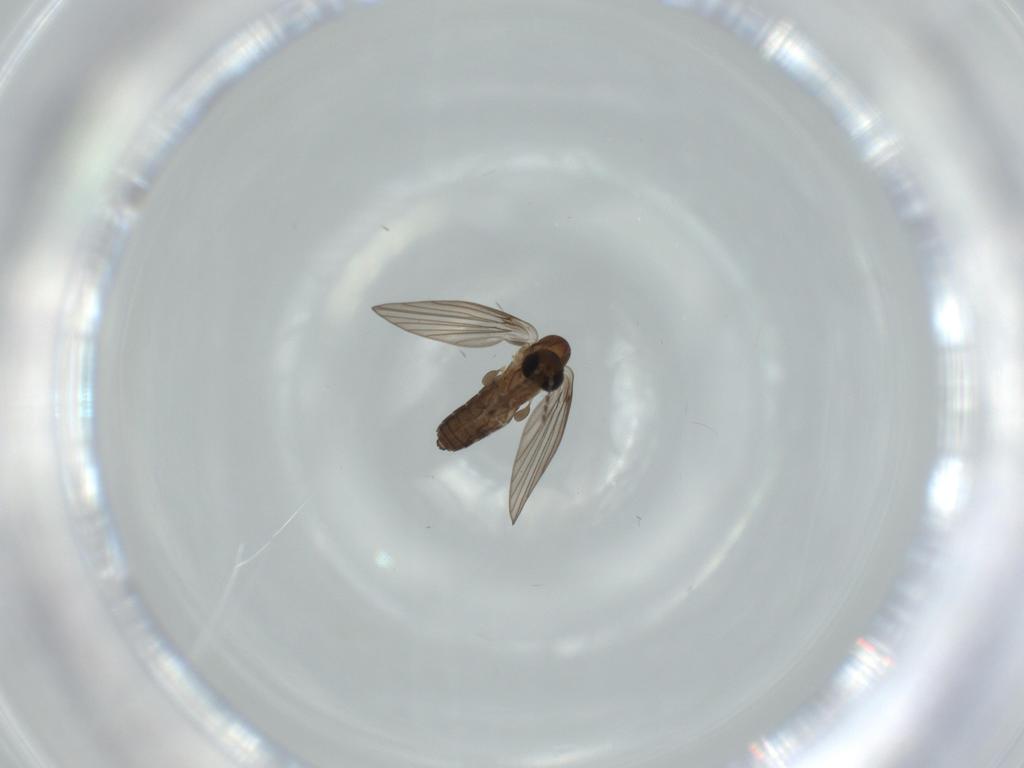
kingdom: Animalia
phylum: Arthropoda
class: Insecta
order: Diptera
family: Psychodidae
